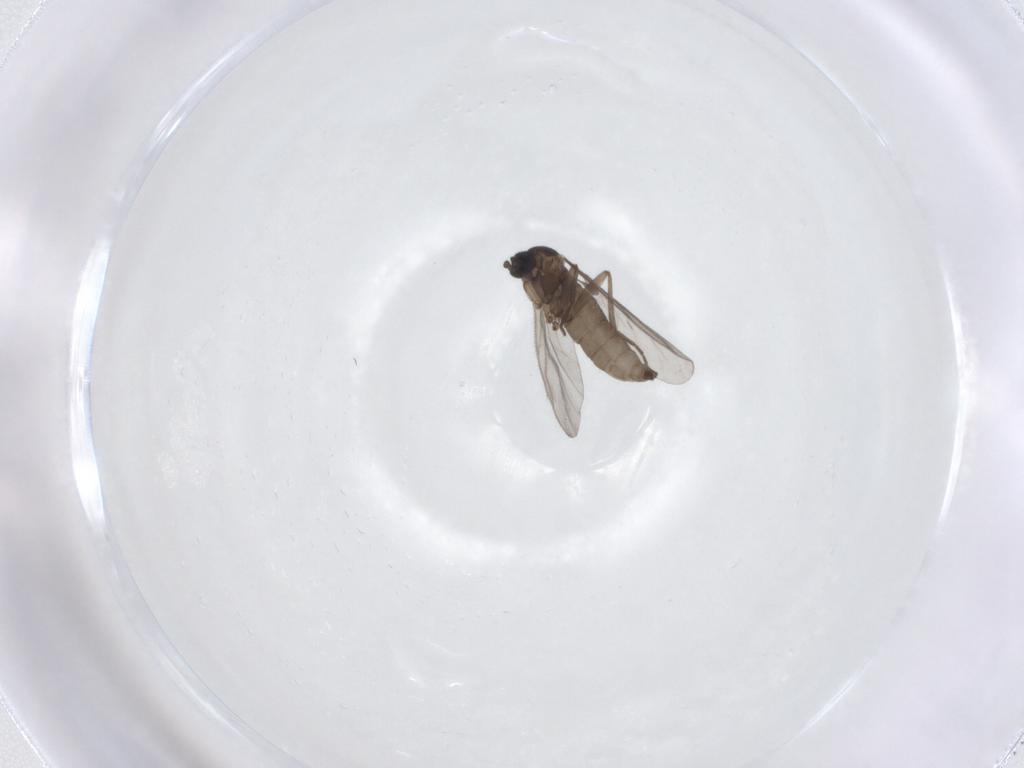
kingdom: Animalia
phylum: Arthropoda
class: Insecta
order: Diptera
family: Sciaridae
